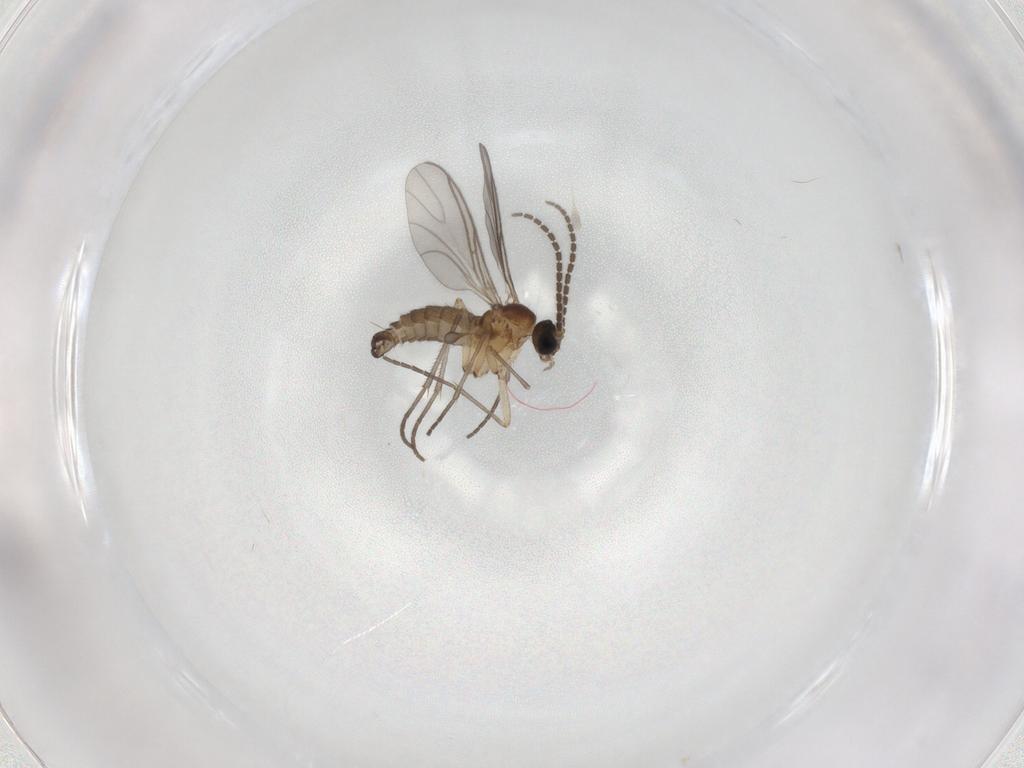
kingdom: Animalia
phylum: Arthropoda
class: Insecta
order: Diptera
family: Sciaridae
